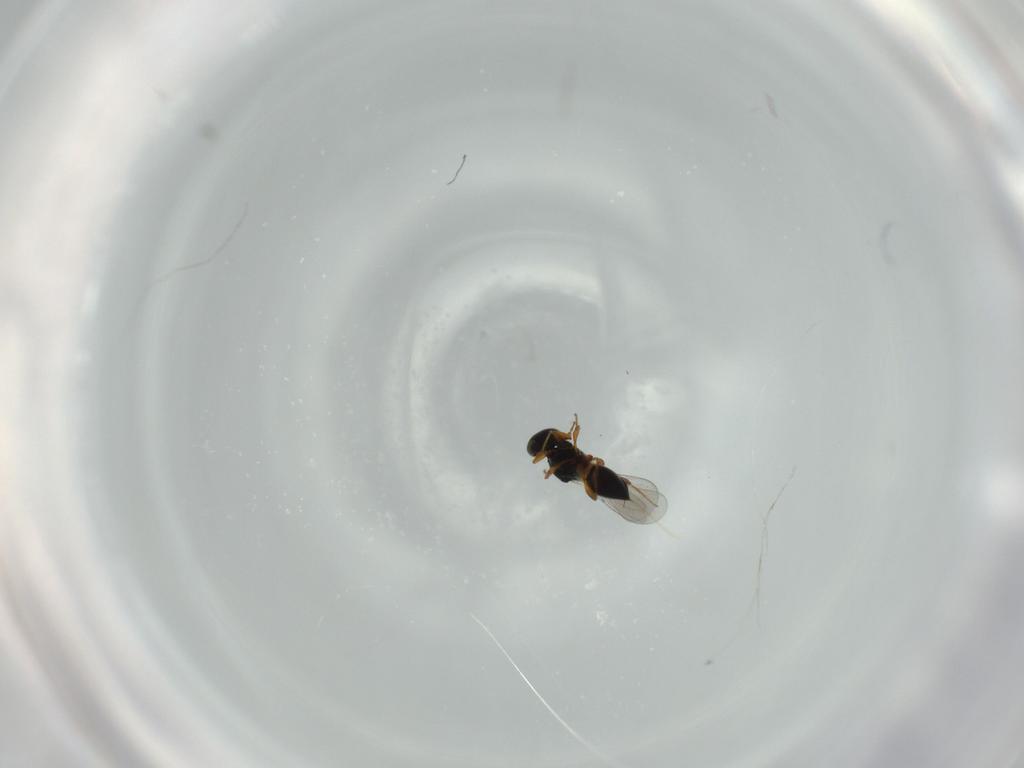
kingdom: Animalia
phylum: Arthropoda
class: Insecta
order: Hymenoptera
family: Platygastridae
